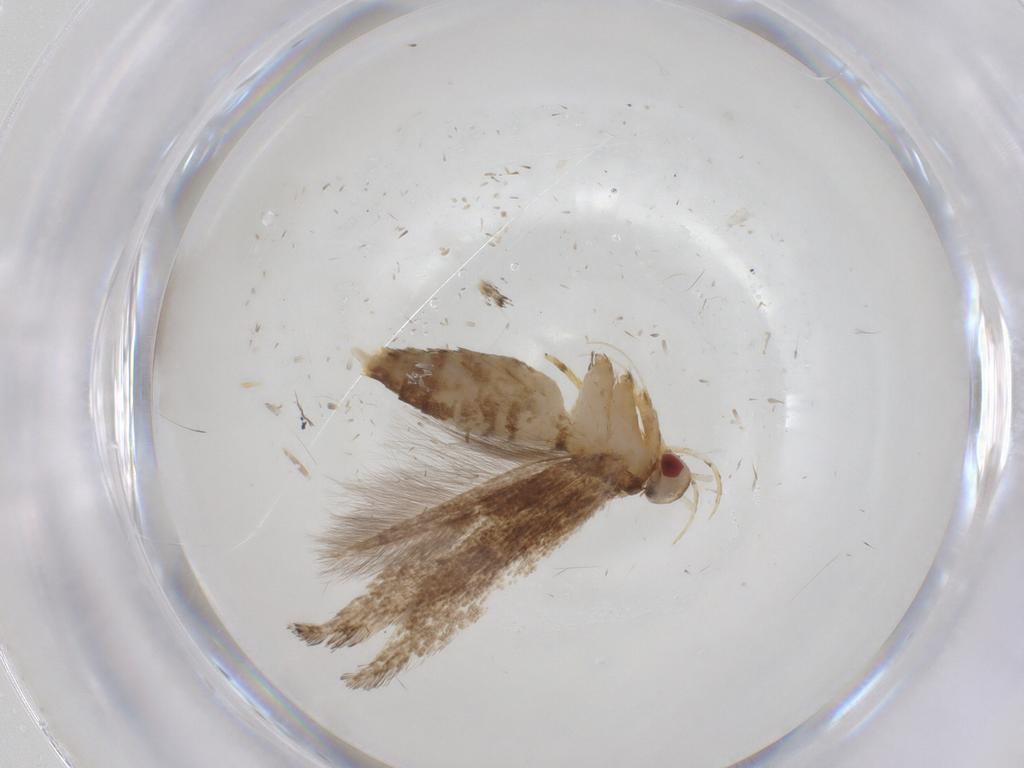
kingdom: Animalia
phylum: Arthropoda
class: Insecta
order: Lepidoptera
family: Cosmopterigidae
